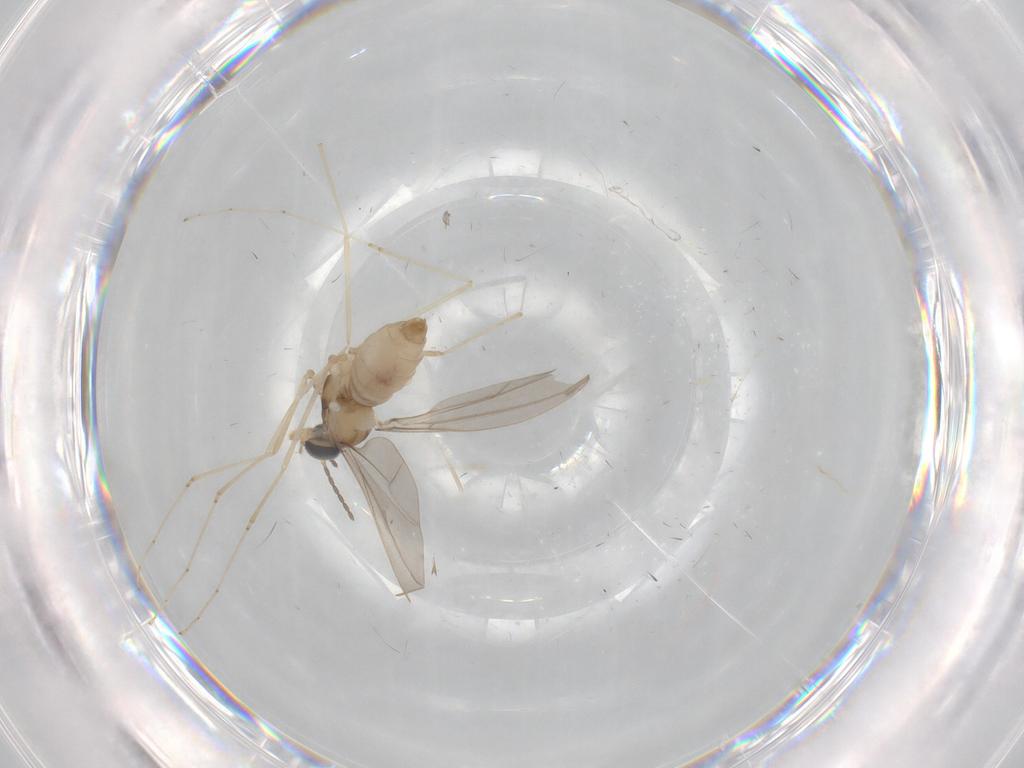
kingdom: Animalia
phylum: Arthropoda
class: Insecta
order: Diptera
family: Cecidomyiidae
